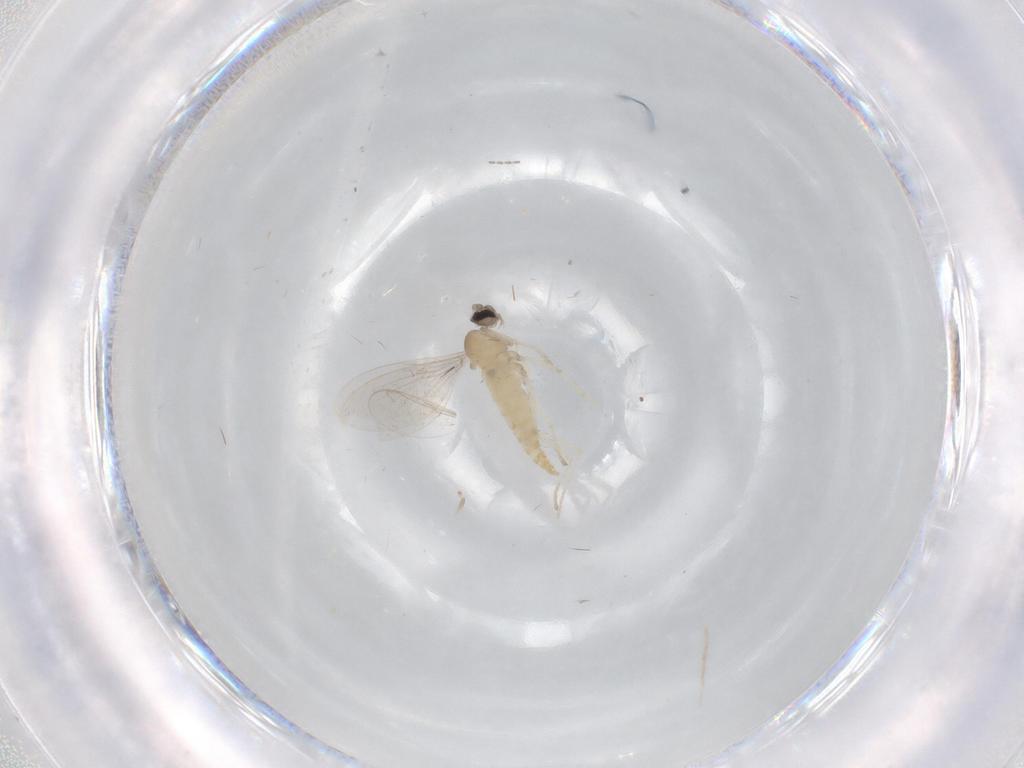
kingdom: Animalia
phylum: Arthropoda
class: Insecta
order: Diptera
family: Cecidomyiidae
